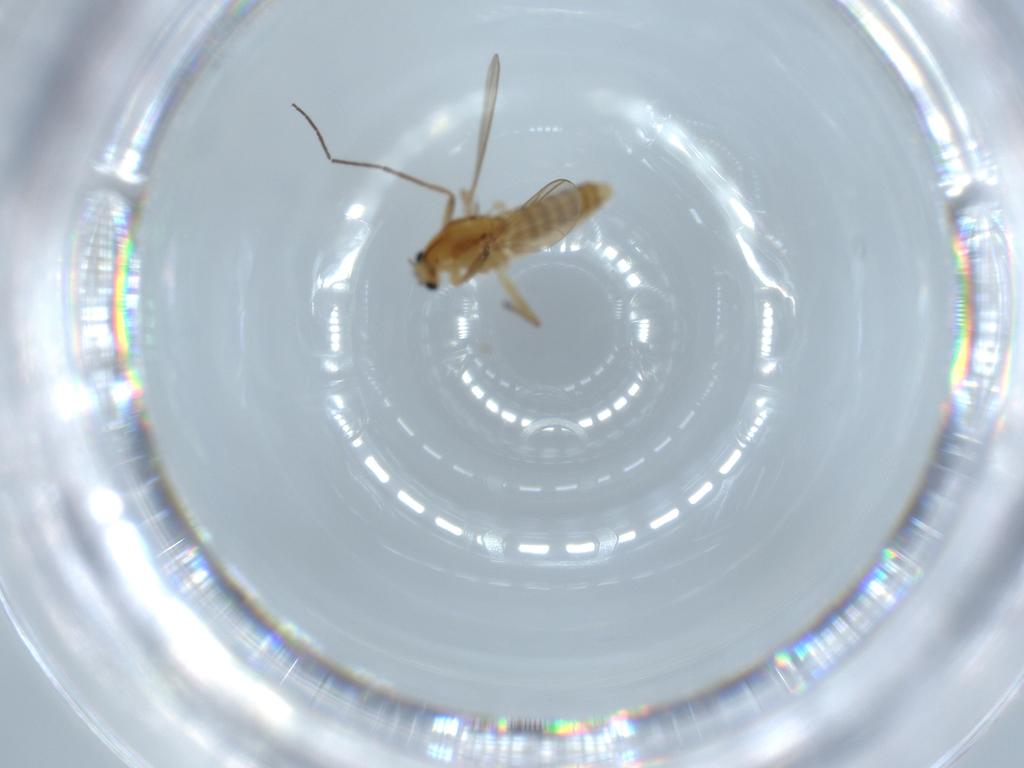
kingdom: Animalia
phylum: Arthropoda
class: Insecta
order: Diptera
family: Chironomidae
